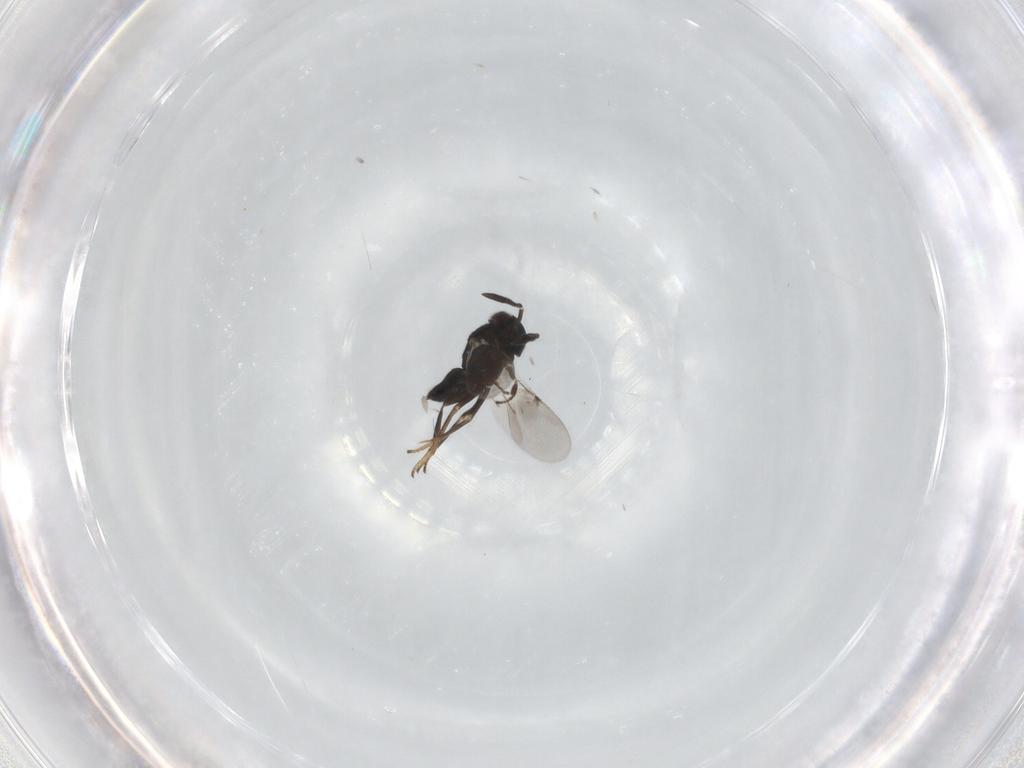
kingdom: Animalia
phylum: Arthropoda
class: Insecta
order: Hymenoptera
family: Encyrtidae
